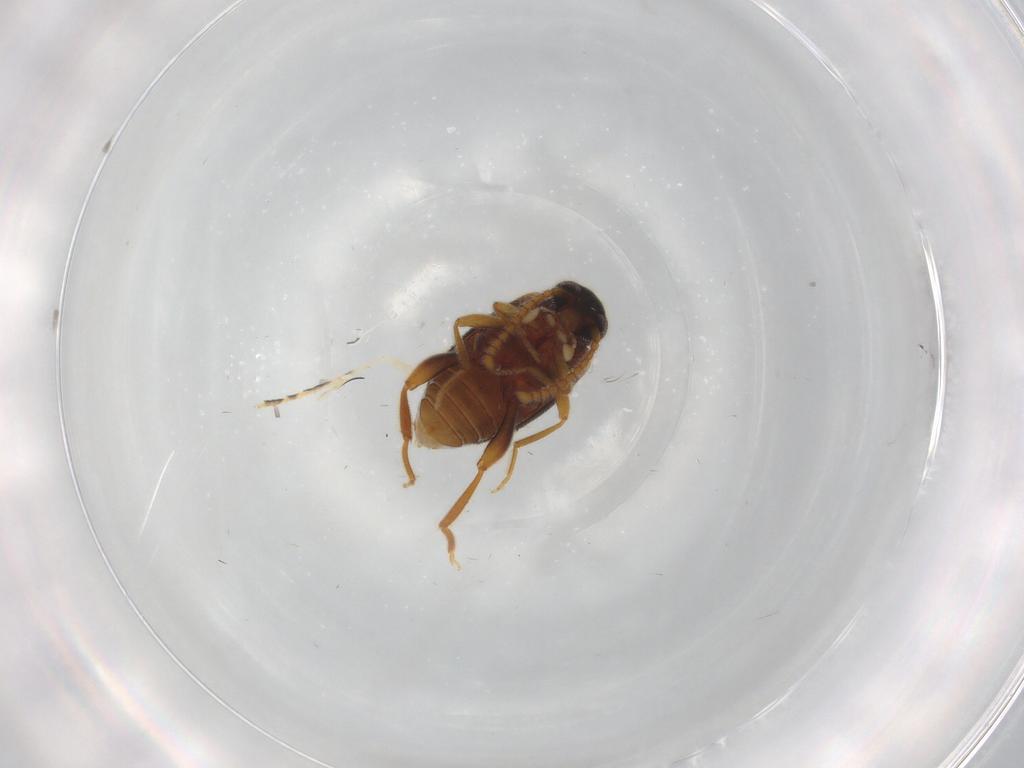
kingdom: Animalia
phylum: Arthropoda
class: Insecta
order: Coleoptera
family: Aderidae
